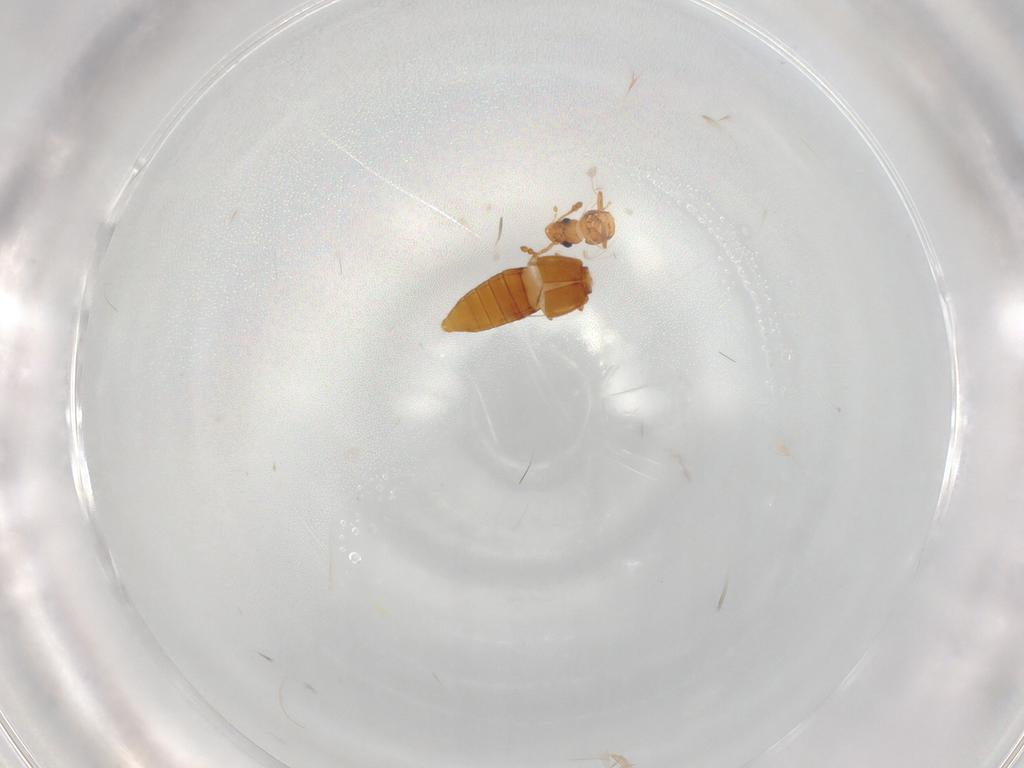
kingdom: Animalia
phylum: Arthropoda
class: Insecta
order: Coleoptera
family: Staphylinidae
